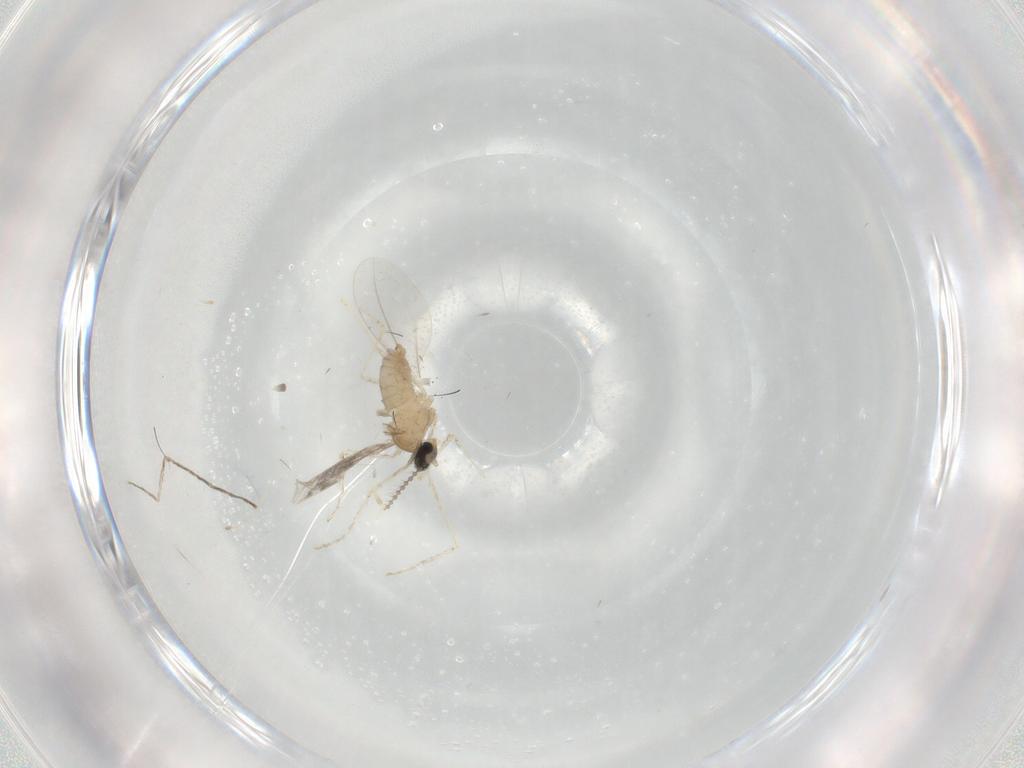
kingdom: Animalia
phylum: Arthropoda
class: Insecta
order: Diptera
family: Cecidomyiidae
